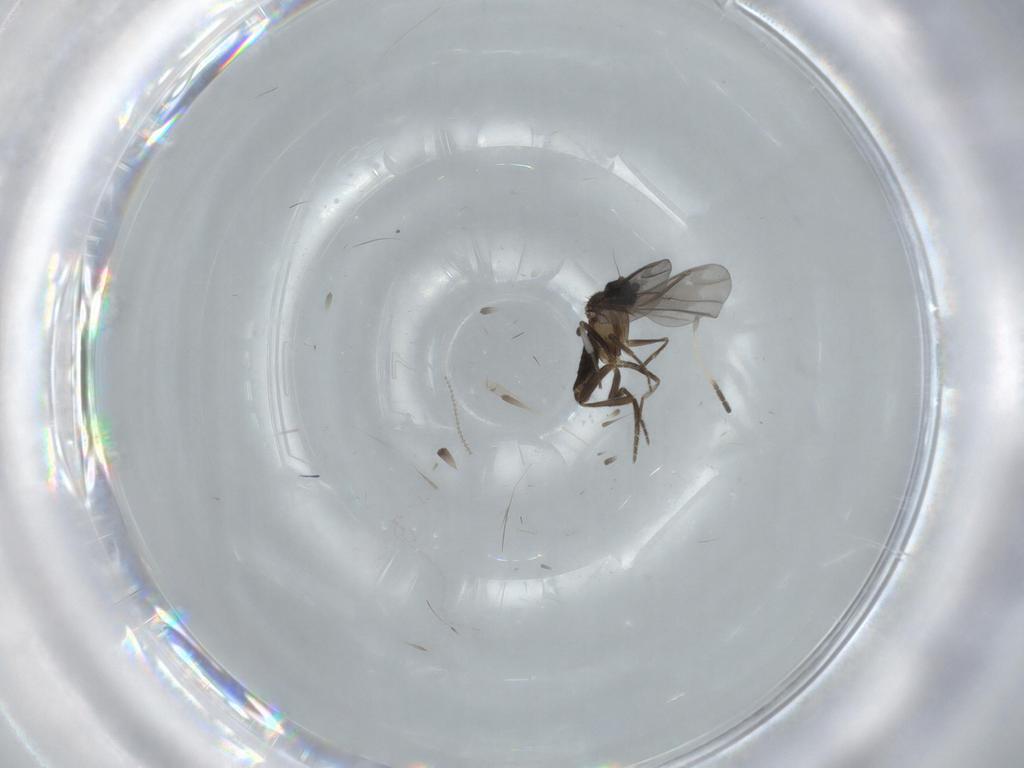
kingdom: Animalia
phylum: Arthropoda
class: Insecta
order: Diptera
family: Phoridae
